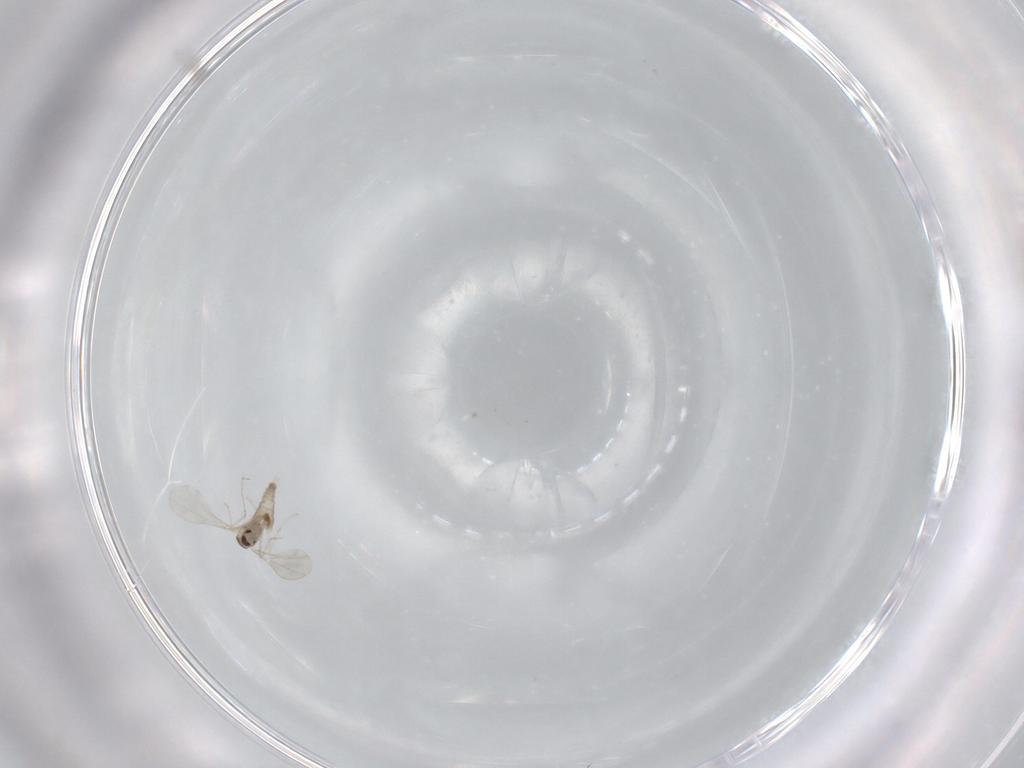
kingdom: Animalia
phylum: Arthropoda
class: Insecta
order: Diptera
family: Cecidomyiidae
